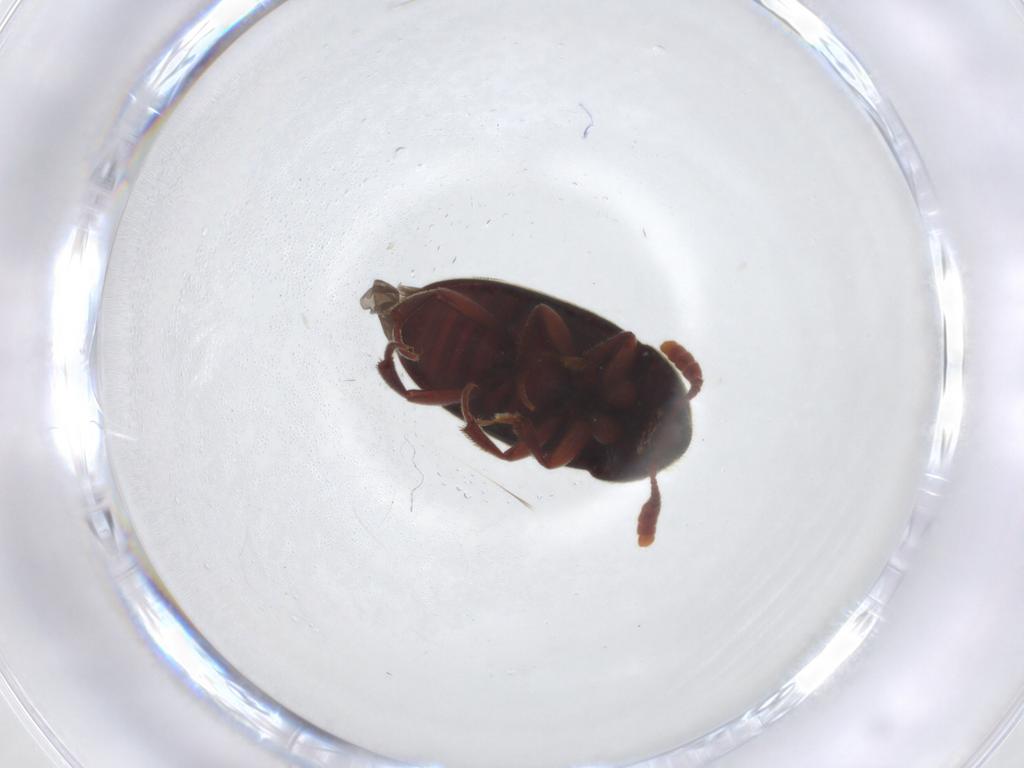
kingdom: Animalia
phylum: Arthropoda
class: Insecta
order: Coleoptera
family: Leiodidae
